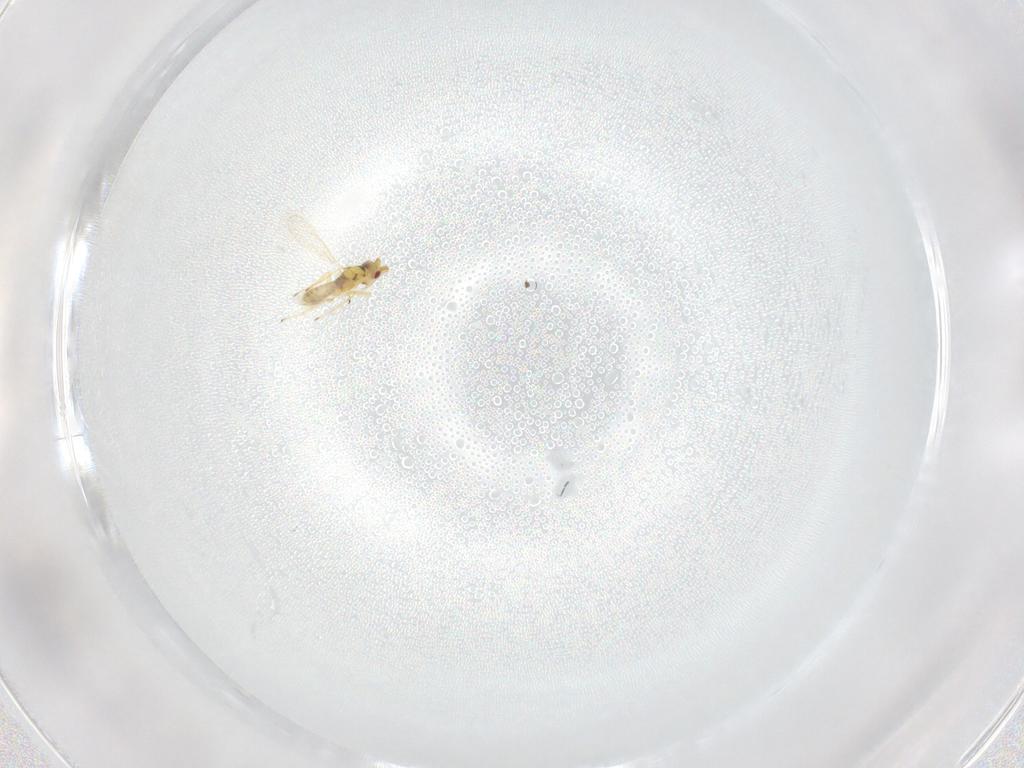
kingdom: Animalia
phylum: Arthropoda
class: Insecta
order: Hymenoptera
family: Eulophidae
